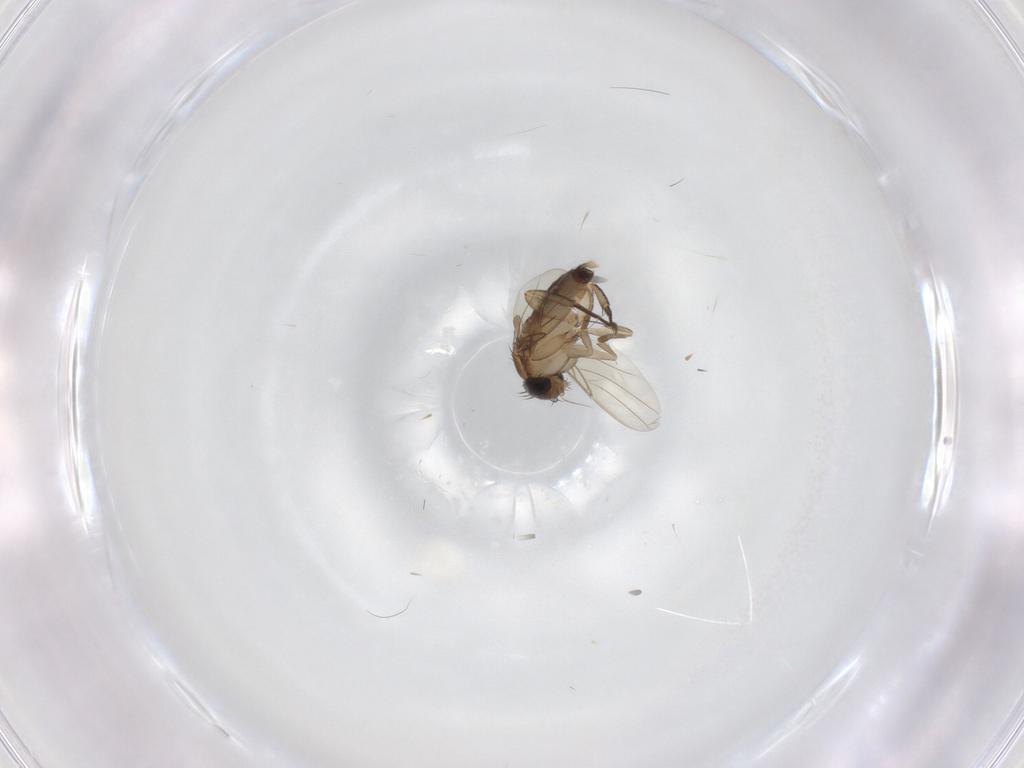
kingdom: Animalia
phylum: Arthropoda
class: Insecta
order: Diptera
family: Phoridae
